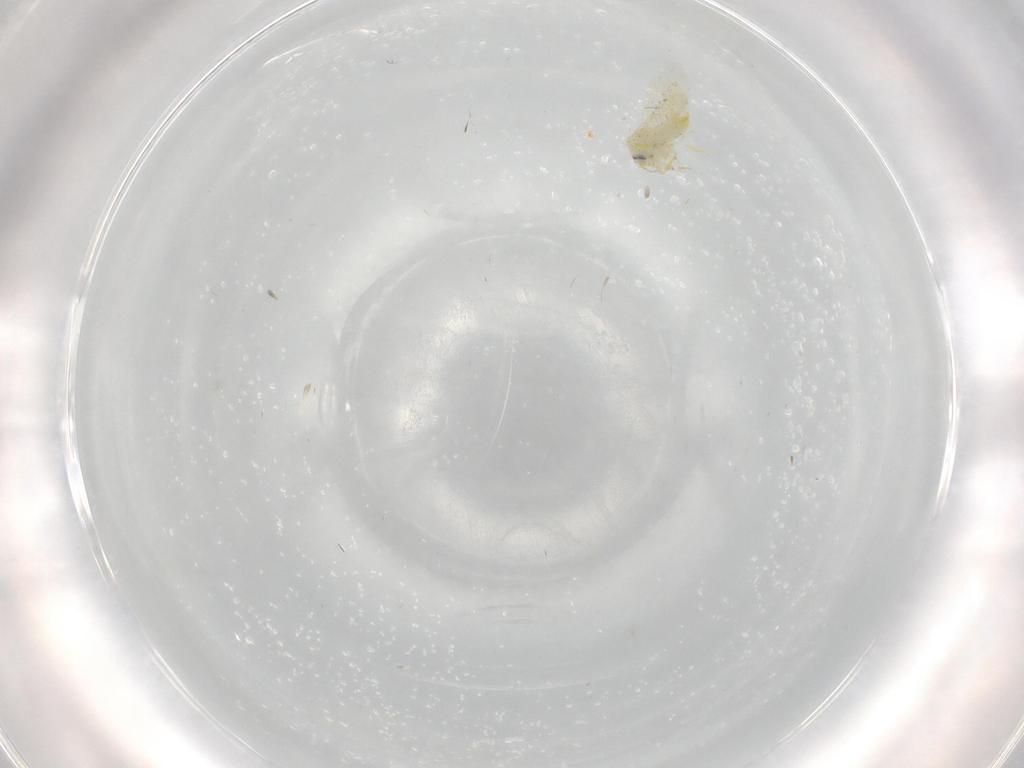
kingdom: Animalia
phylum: Arthropoda
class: Insecta
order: Hemiptera
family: Aleyrodidae
